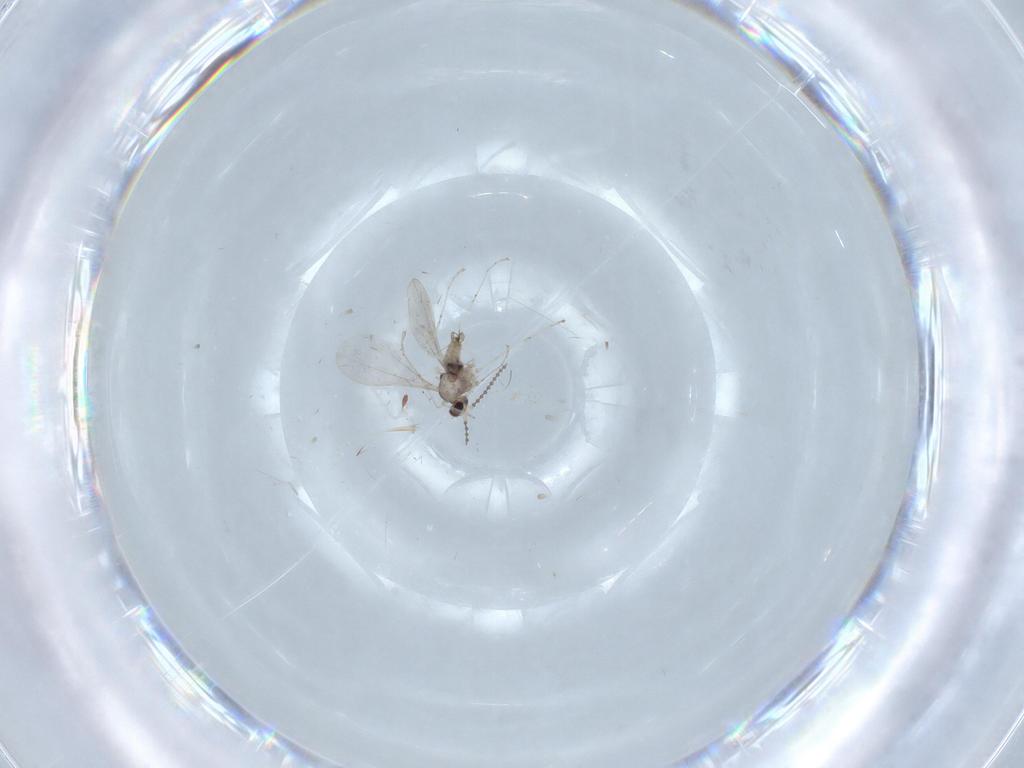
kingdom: Animalia
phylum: Arthropoda
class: Insecta
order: Diptera
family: Cecidomyiidae
